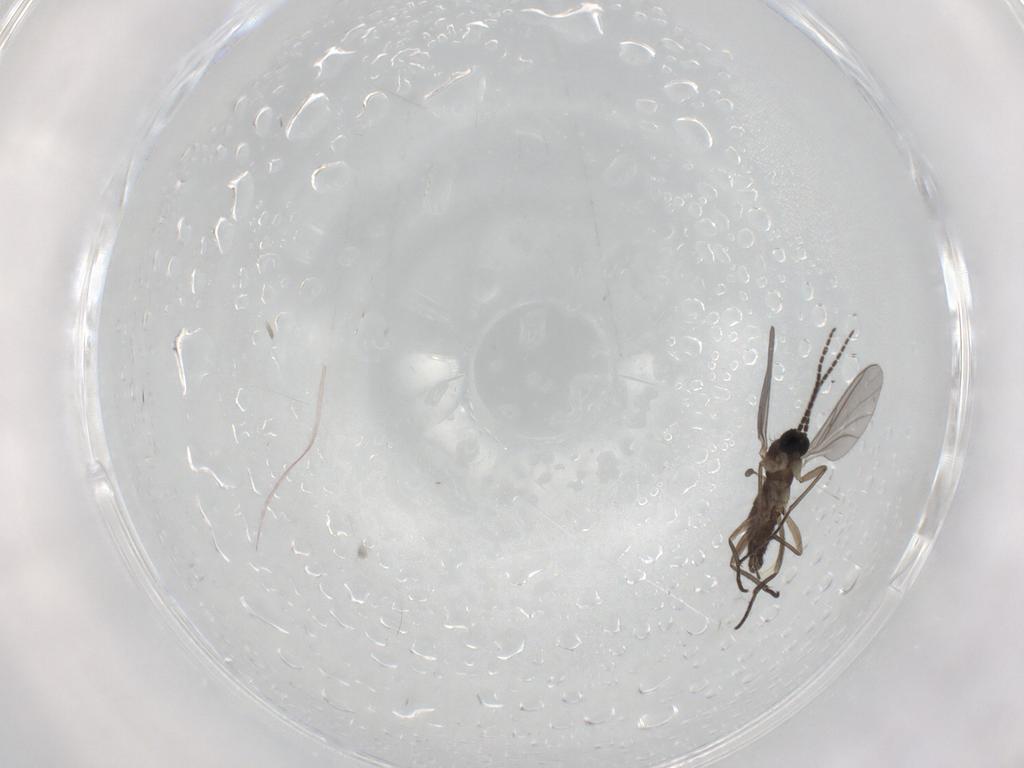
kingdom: Animalia
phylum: Arthropoda
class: Insecta
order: Diptera
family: Sciaridae
